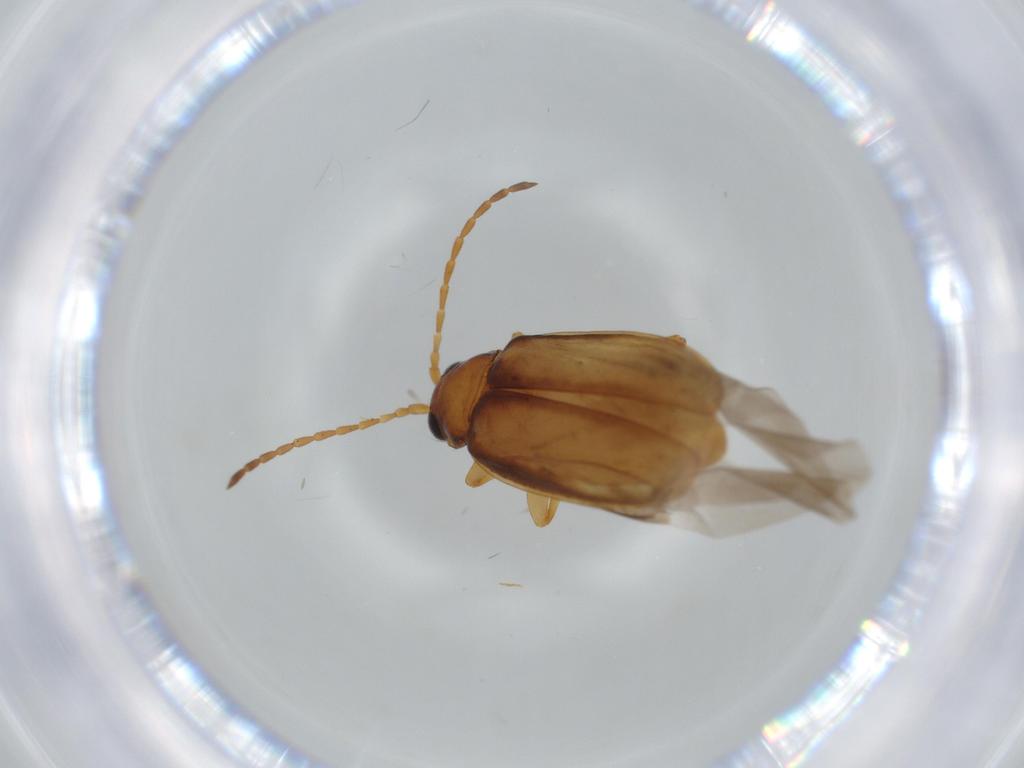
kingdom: Animalia
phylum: Arthropoda
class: Insecta
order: Coleoptera
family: Chrysomelidae
